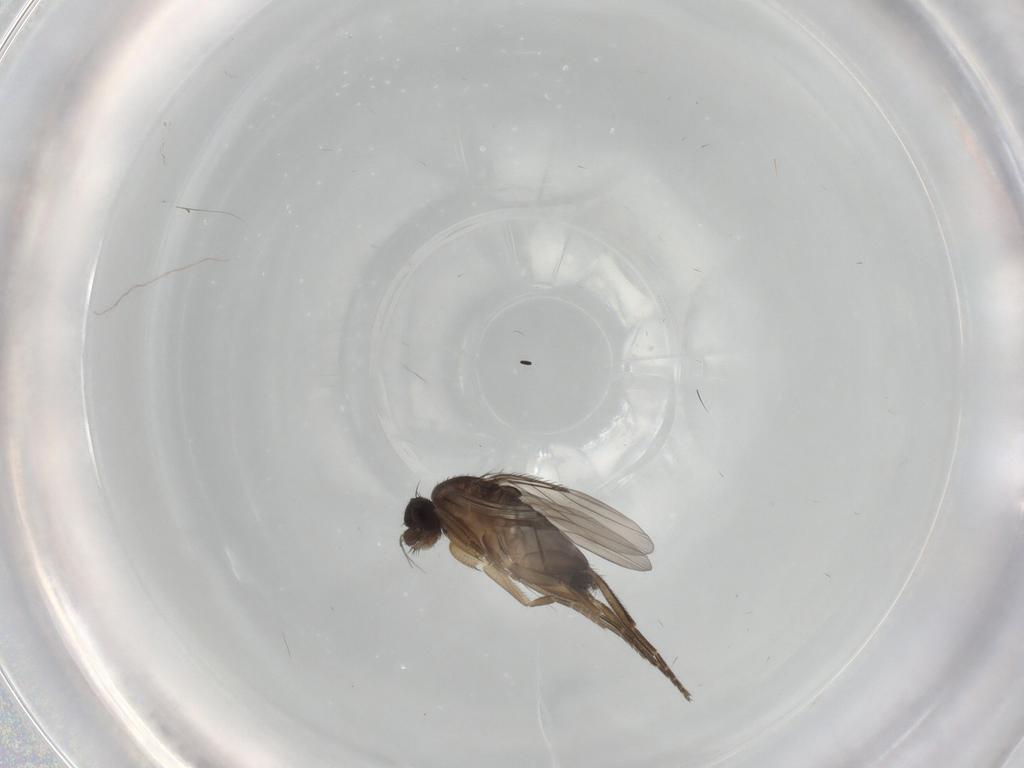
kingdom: Animalia
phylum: Arthropoda
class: Insecta
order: Diptera
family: Phoridae
